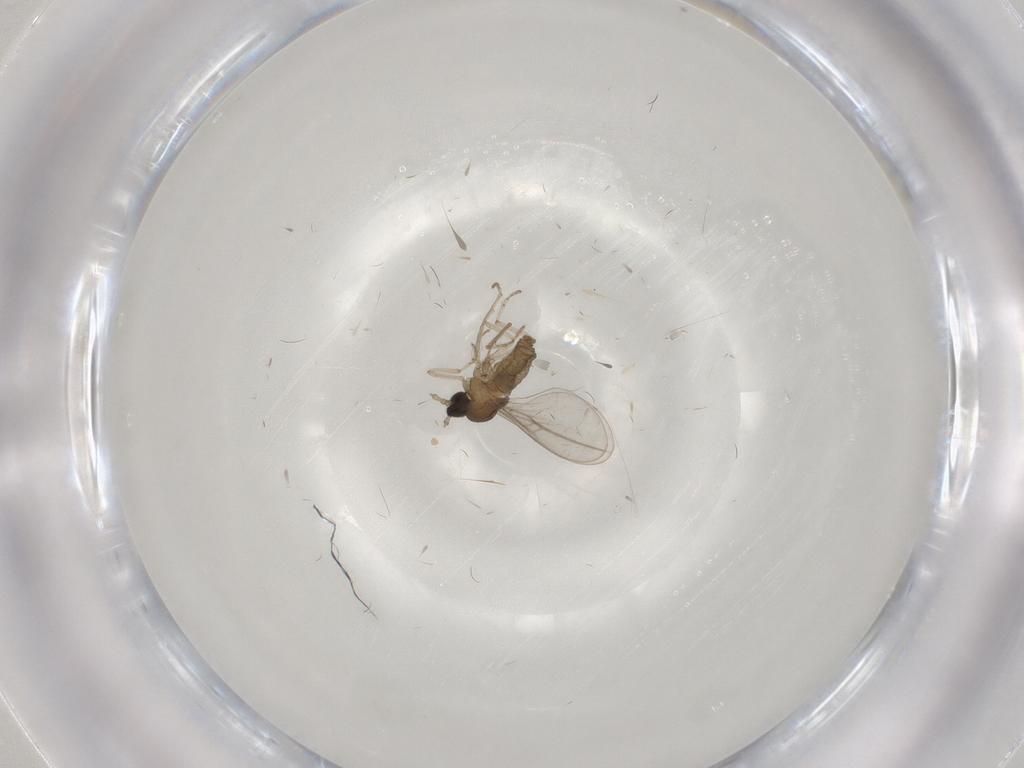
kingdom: Animalia
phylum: Arthropoda
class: Insecta
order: Diptera
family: Cecidomyiidae
